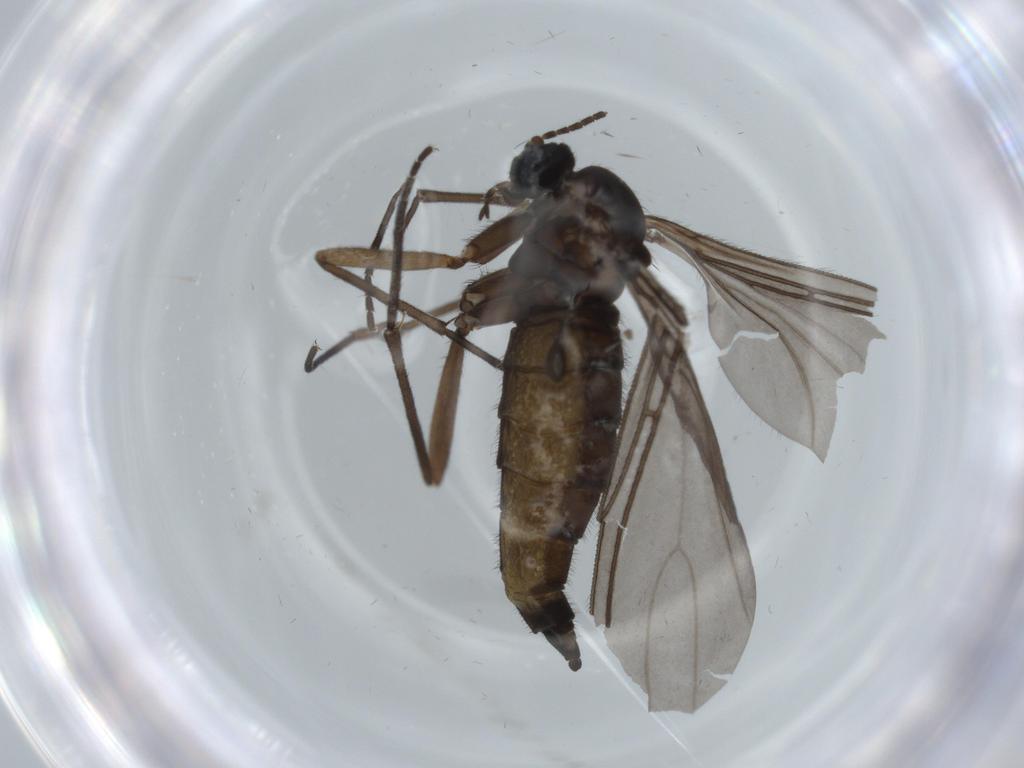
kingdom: Animalia
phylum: Arthropoda
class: Insecta
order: Diptera
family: Sciaridae
